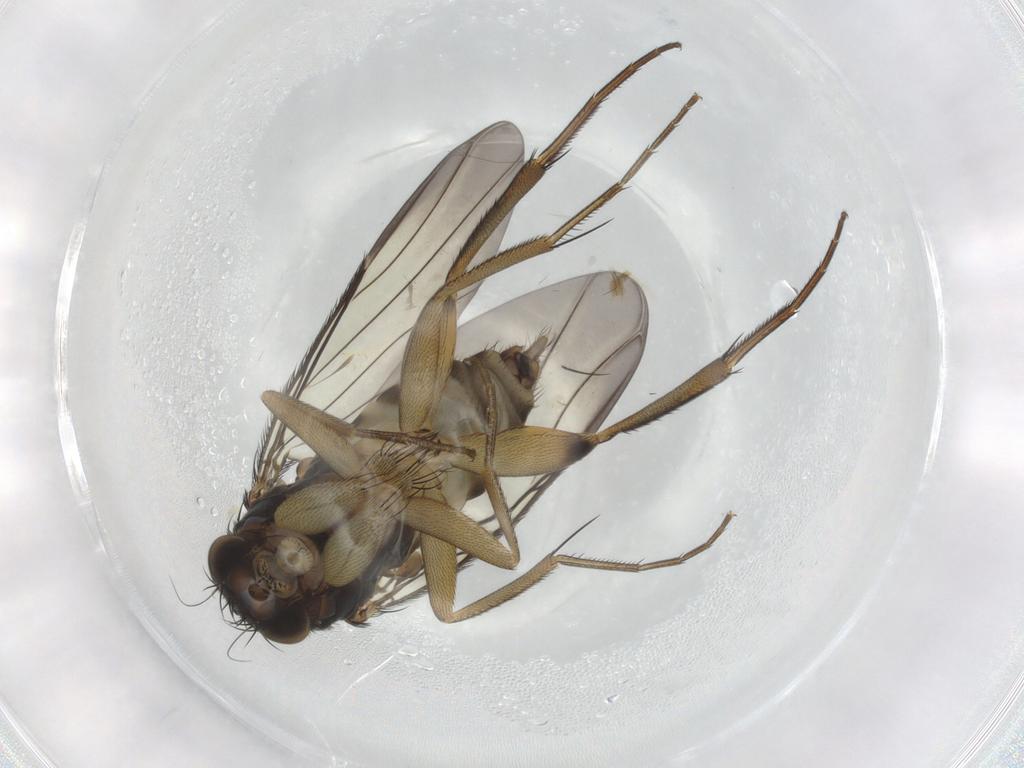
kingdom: Animalia
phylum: Arthropoda
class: Insecta
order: Diptera
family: Phoridae
